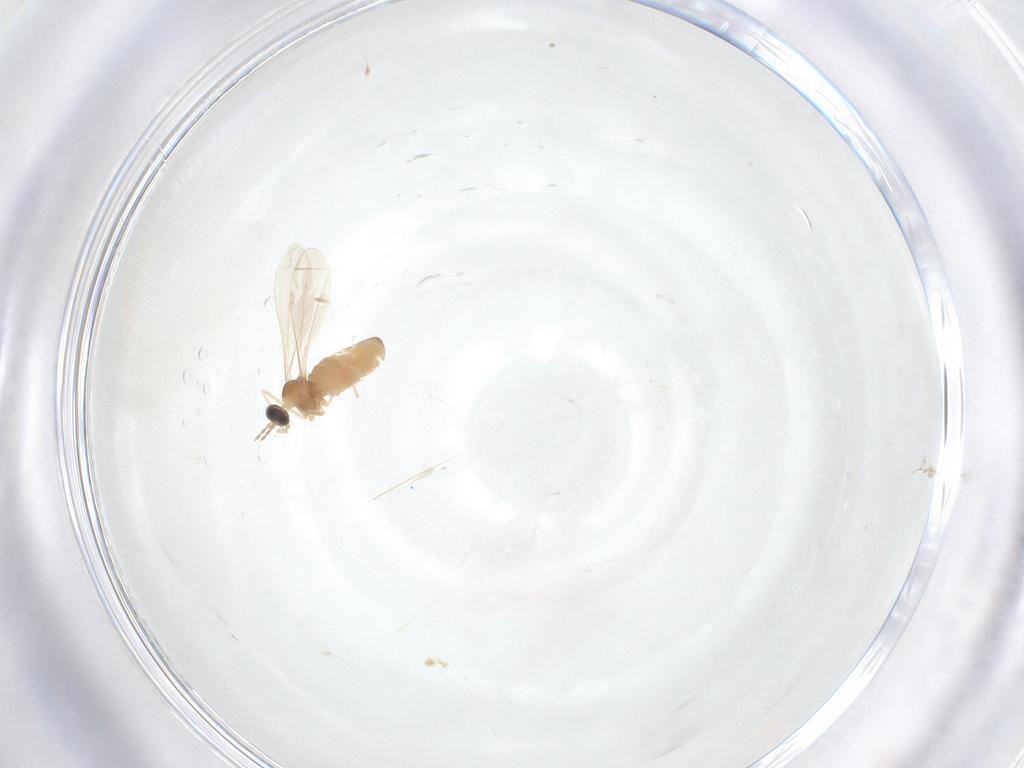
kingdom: Animalia
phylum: Arthropoda
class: Insecta
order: Diptera
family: Cecidomyiidae
